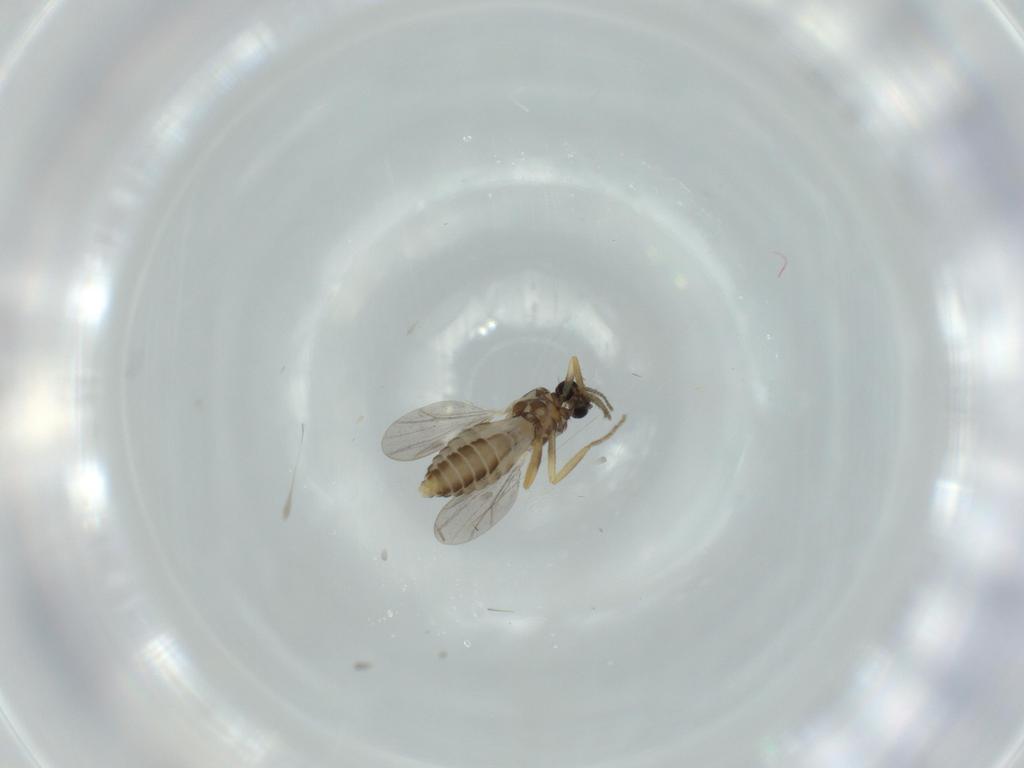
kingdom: Animalia
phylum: Arthropoda
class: Insecta
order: Diptera
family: Ceratopogonidae
